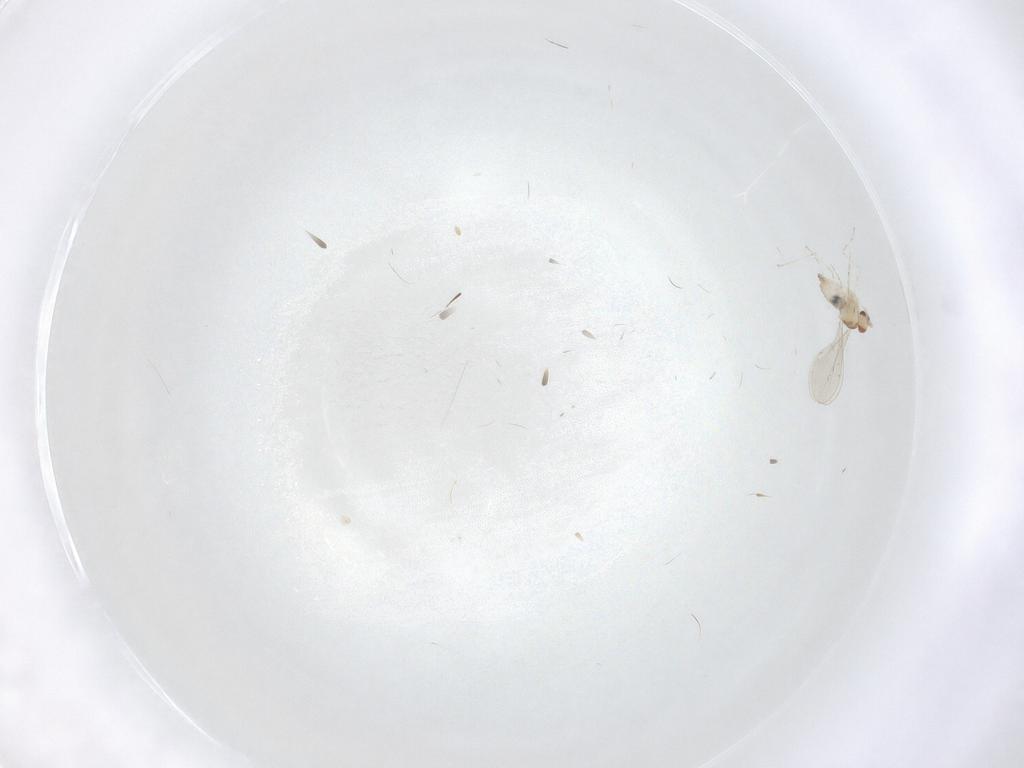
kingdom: Animalia
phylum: Arthropoda
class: Insecta
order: Diptera
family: Cecidomyiidae
